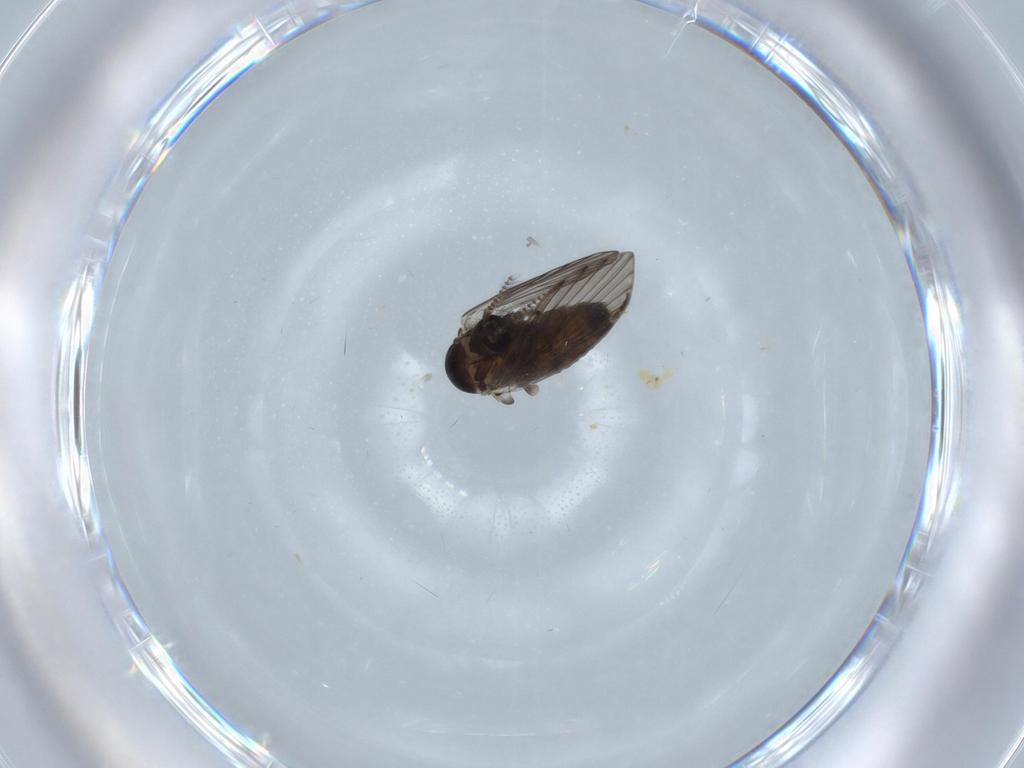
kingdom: Animalia
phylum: Arthropoda
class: Insecta
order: Diptera
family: Psychodidae
